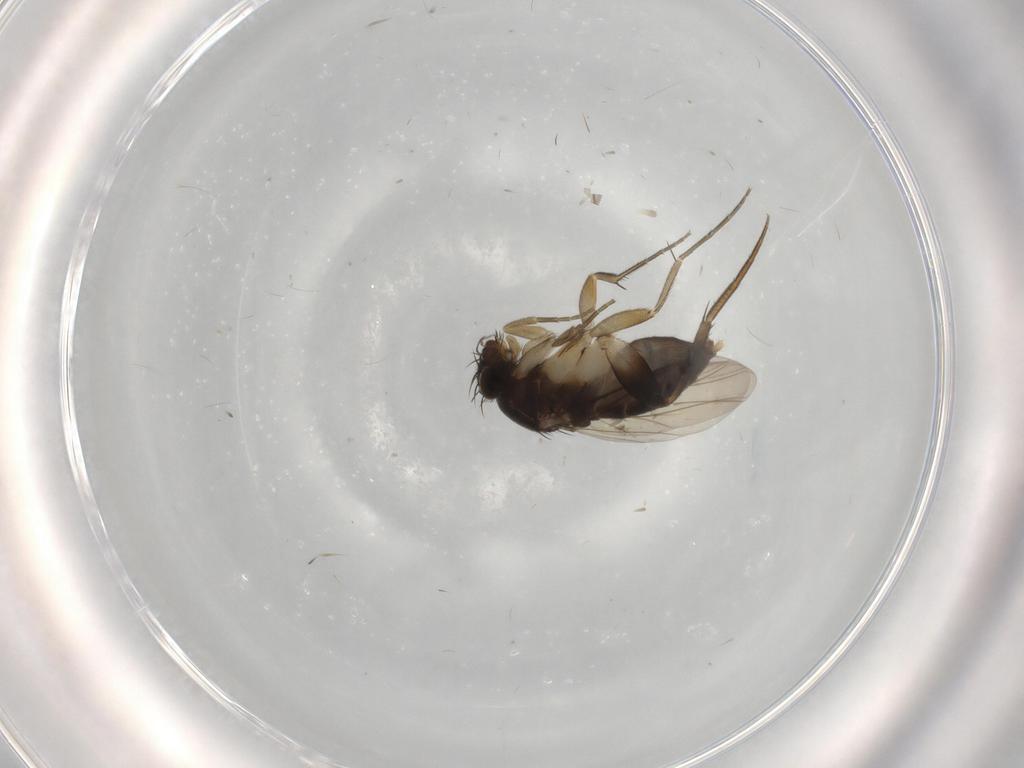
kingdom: Animalia
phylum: Arthropoda
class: Insecta
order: Diptera
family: Phoridae
